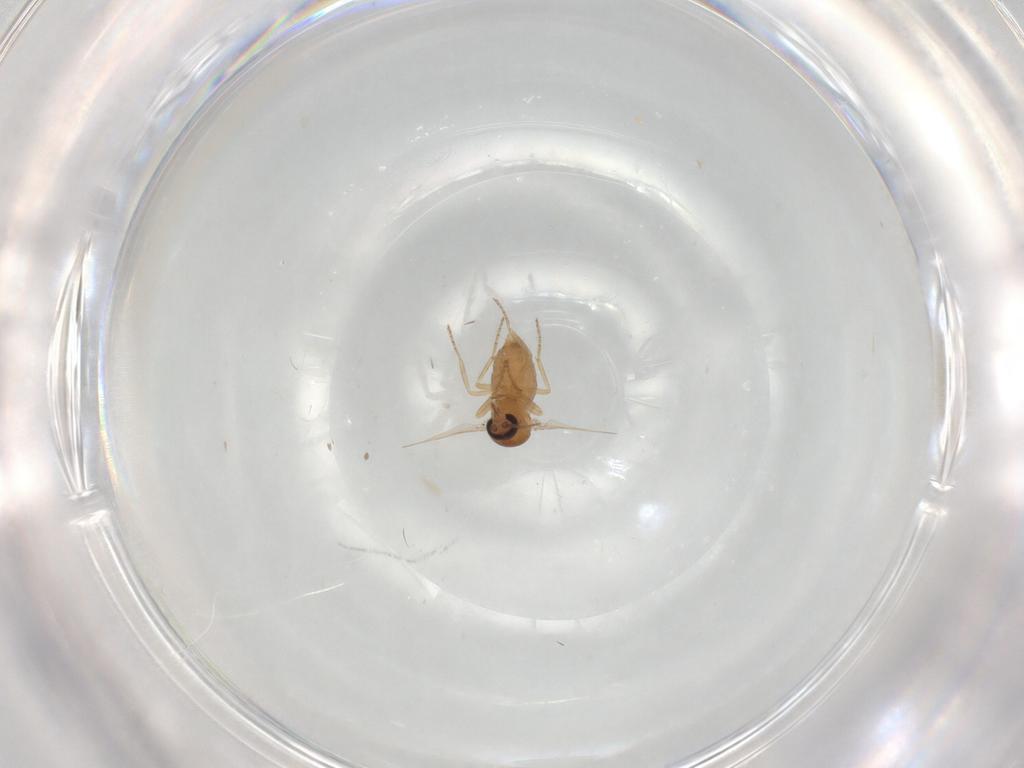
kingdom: Animalia
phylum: Arthropoda
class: Insecta
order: Diptera
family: Ceratopogonidae
